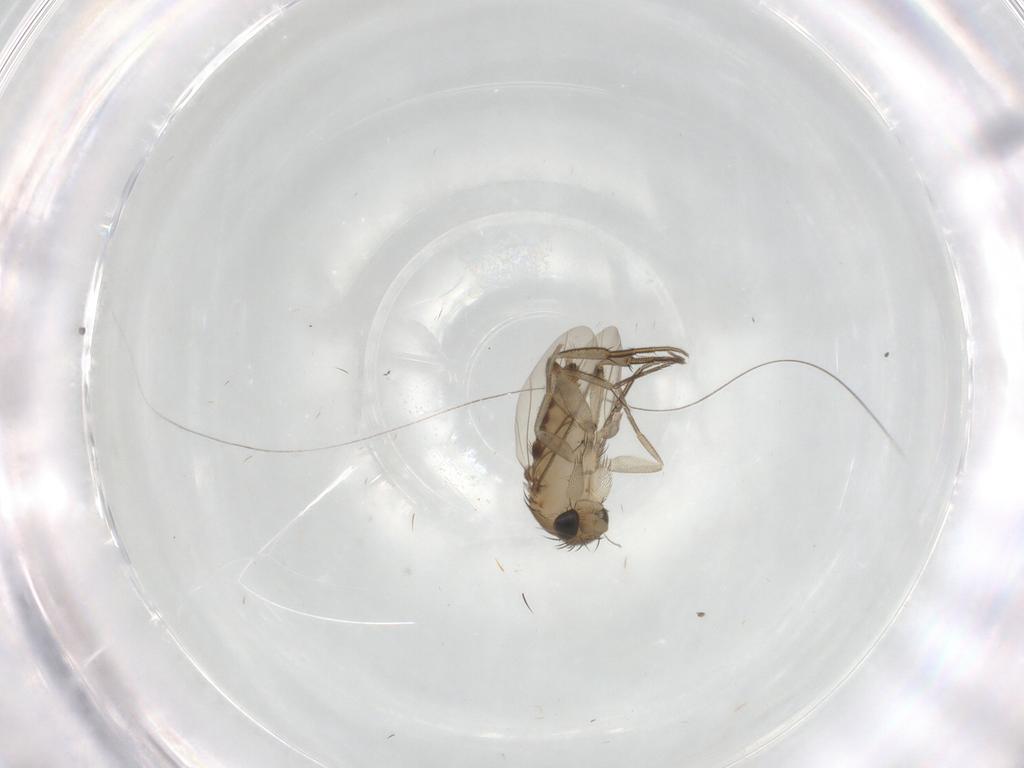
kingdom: Animalia
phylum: Arthropoda
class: Insecta
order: Diptera
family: Phoridae
